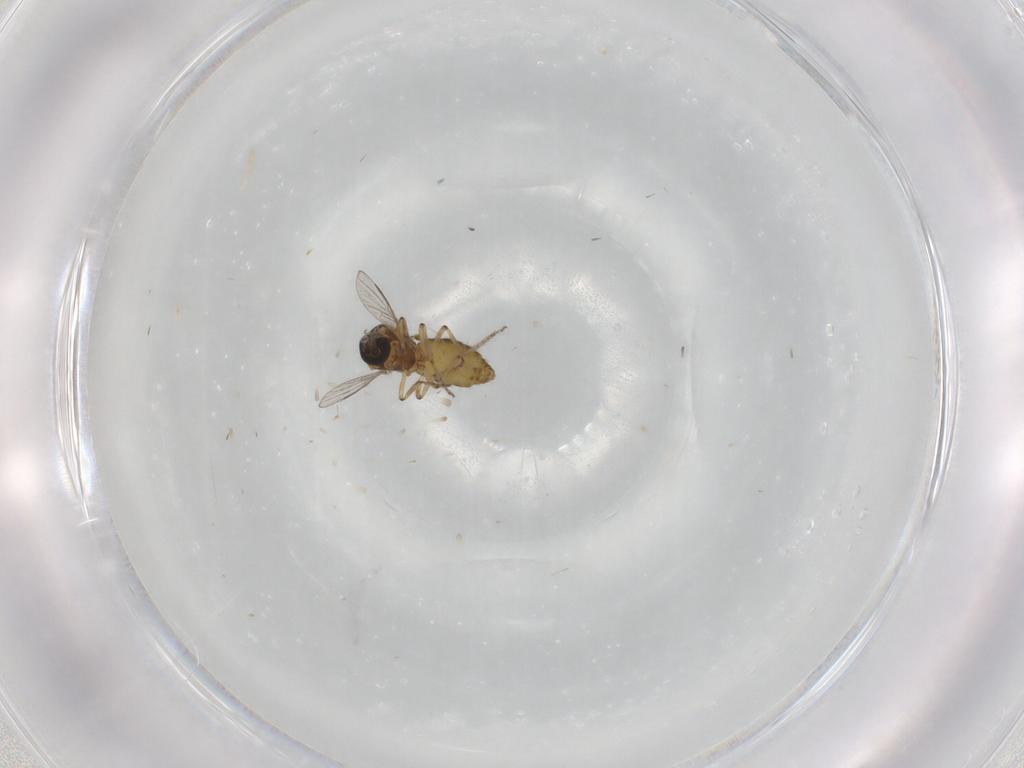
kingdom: Animalia
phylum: Arthropoda
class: Insecta
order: Diptera
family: Ceratopogonidae
